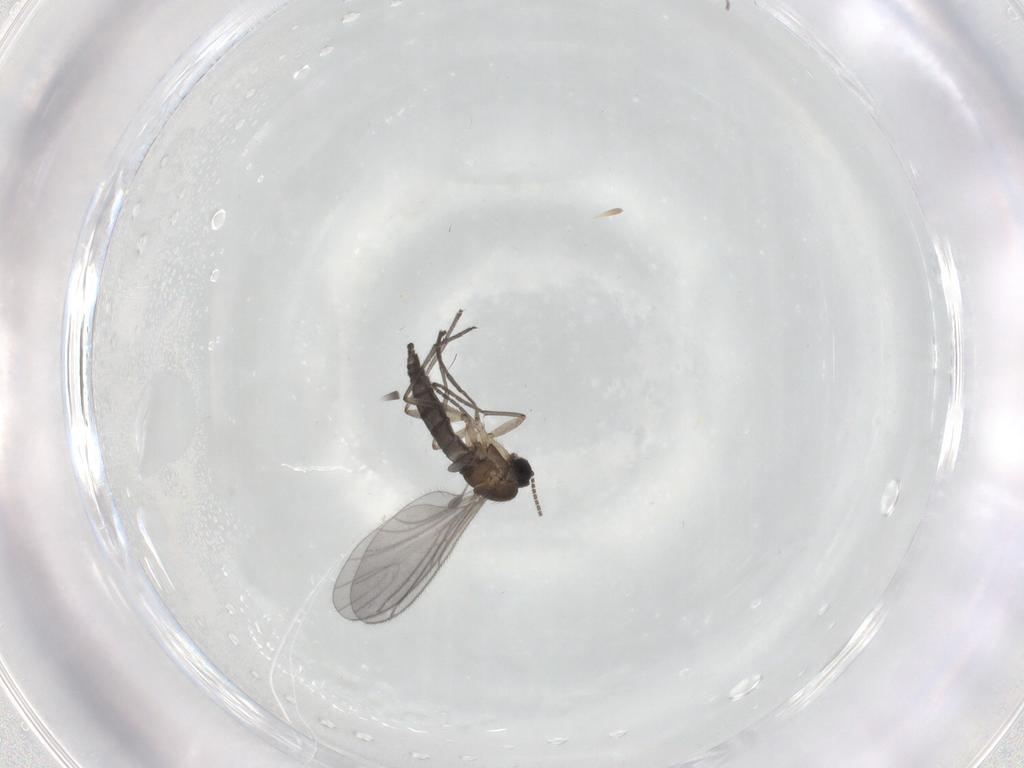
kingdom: Animalia
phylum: Arthropoda
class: Insecta
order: Diptera
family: Sciaridae
